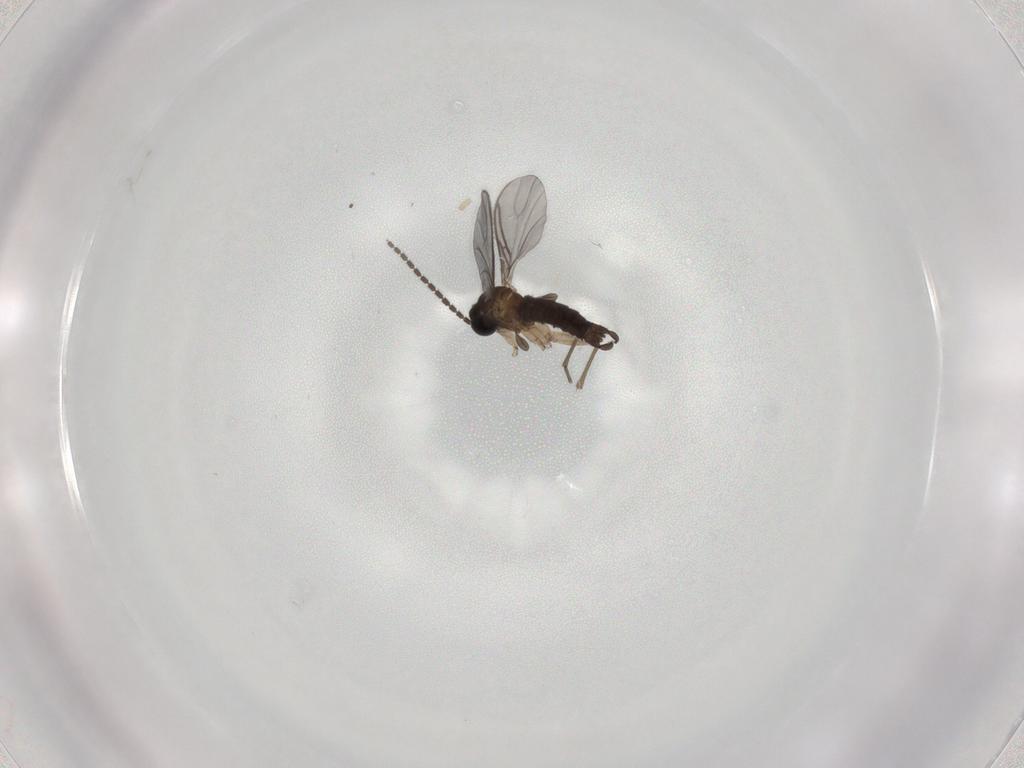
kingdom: Animalia
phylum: Arthropoda
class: Insecta
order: Diptera
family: Sciaridae
